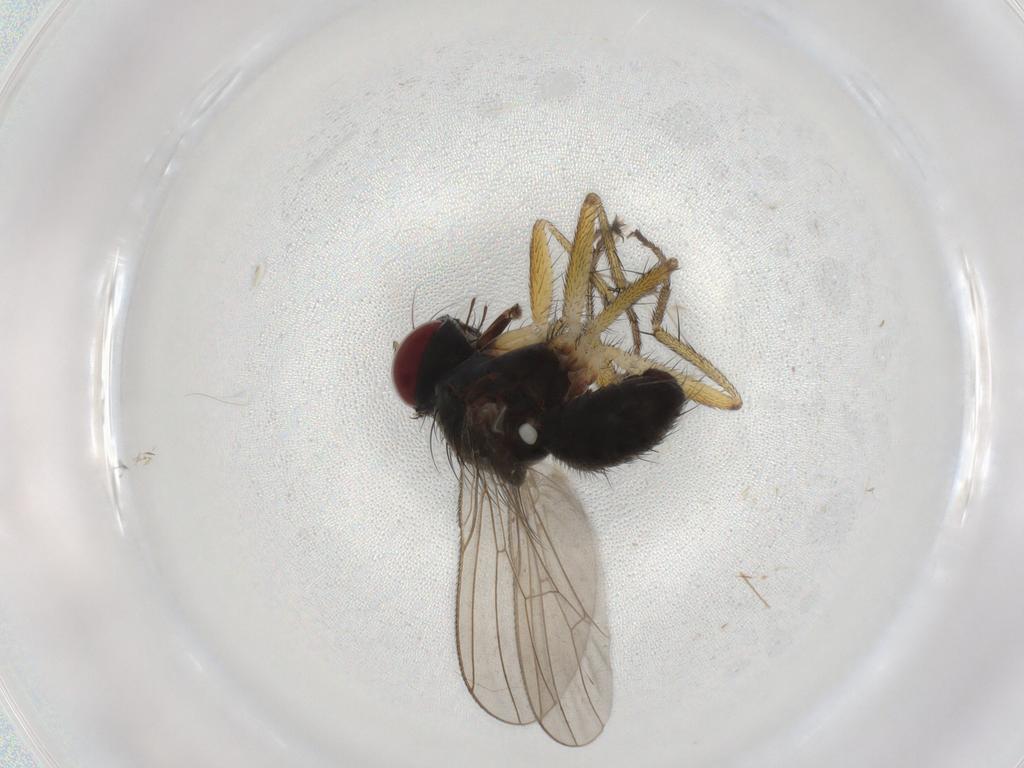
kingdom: Animalia
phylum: Arthropoda
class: Insecta
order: Diptera
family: Muscidae
